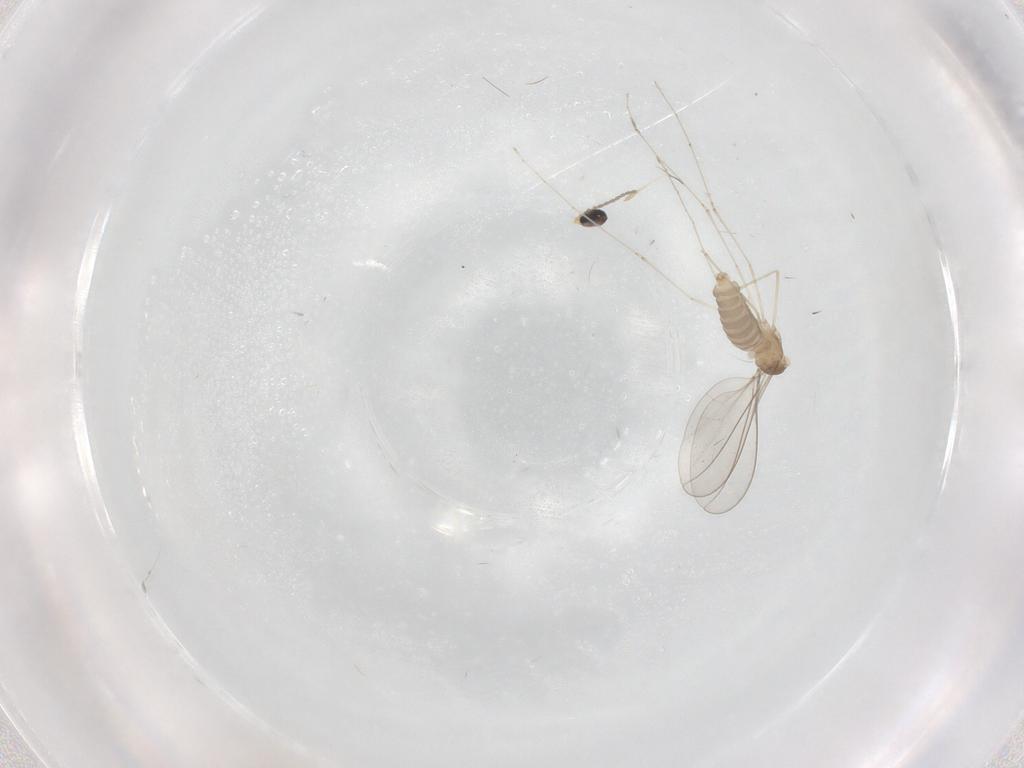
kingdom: Animalia
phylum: Arthropoda
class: Insecta
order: Diptera
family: Cecidomyiidae
